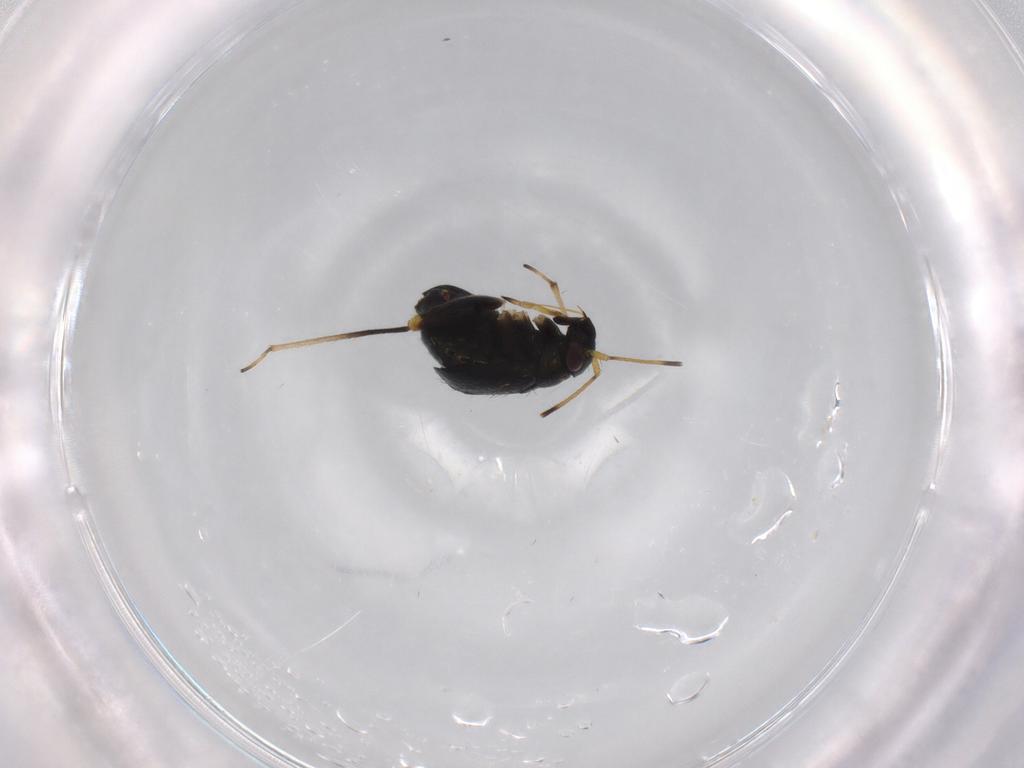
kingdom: Animalia
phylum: Arthropoda
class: Insecta
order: Hemiptera
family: Miridae
